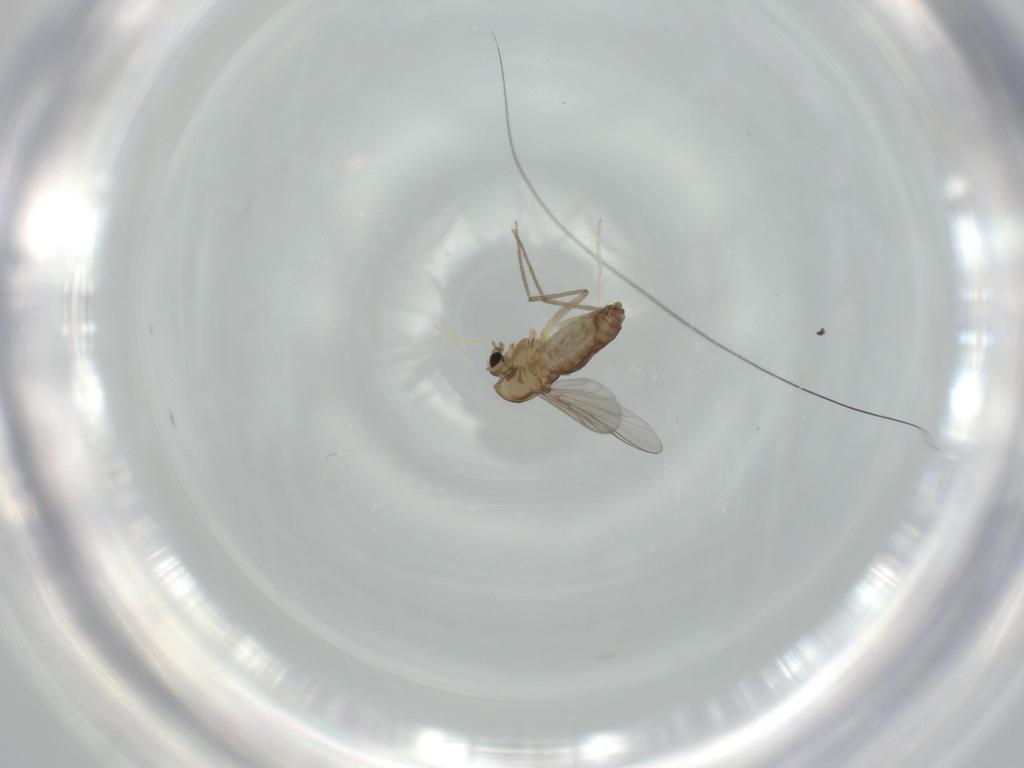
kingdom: Animalia
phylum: Arthropoda
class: Insecta
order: Diptera
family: Chironomidae
